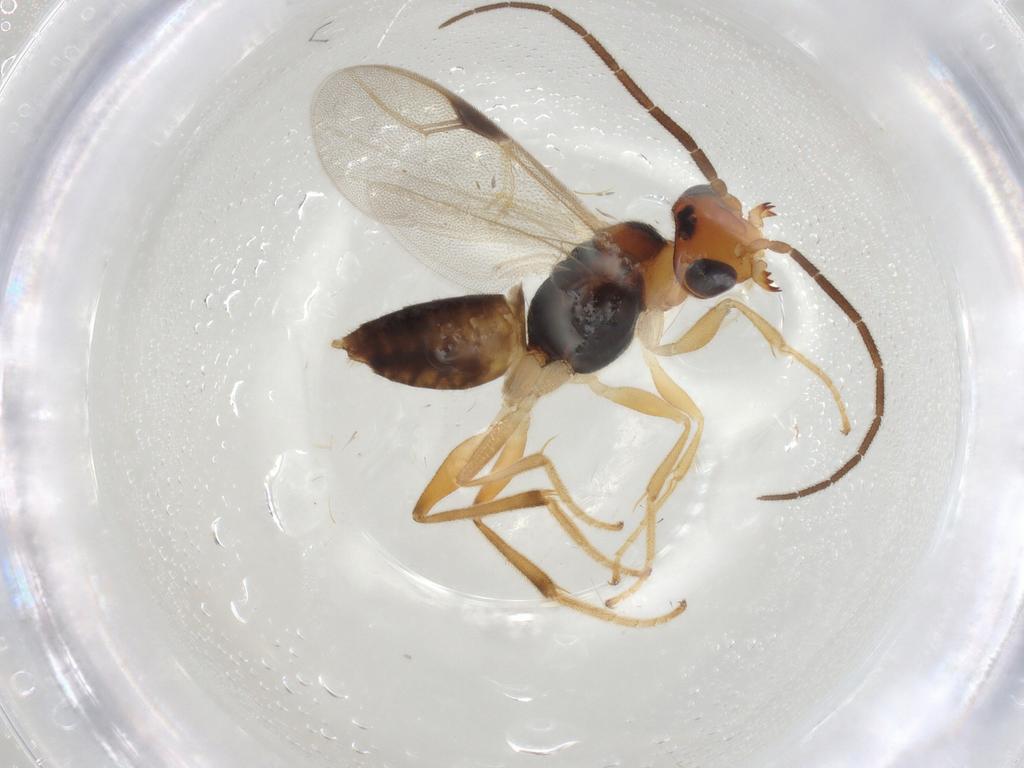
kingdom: Animalia
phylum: Arthropoda
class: Insecta
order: Hymenoptera
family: Dryinidae
